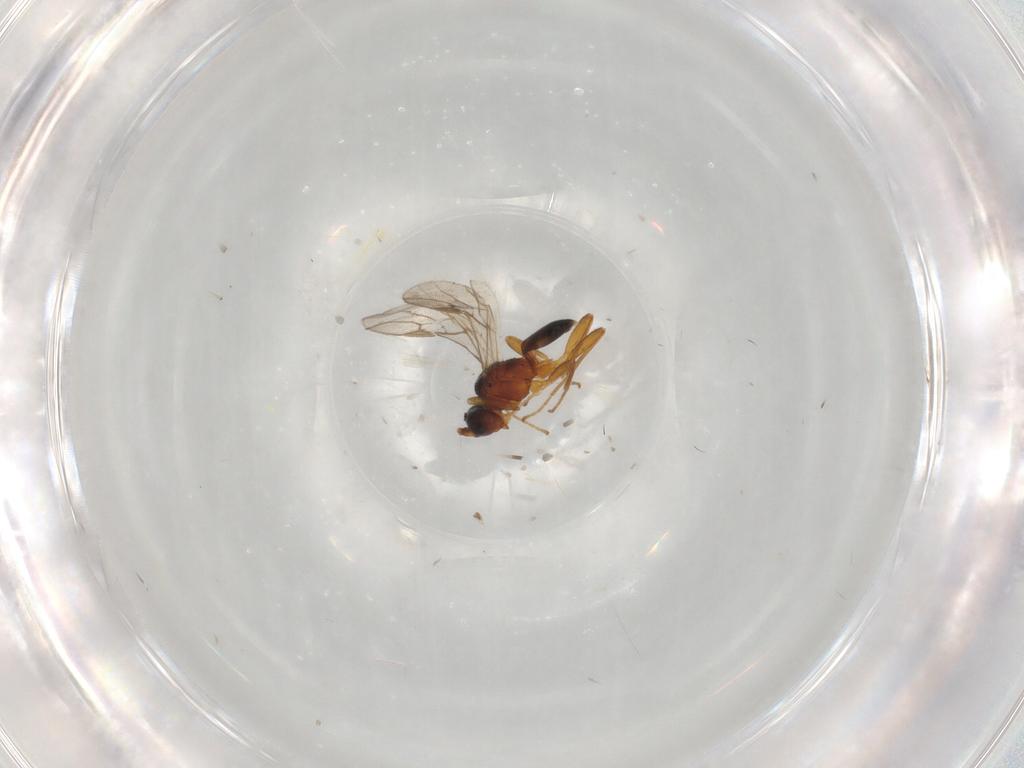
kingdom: Animalia
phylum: Arthropoda
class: Insecta
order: Hymenoptera
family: Braconidae
